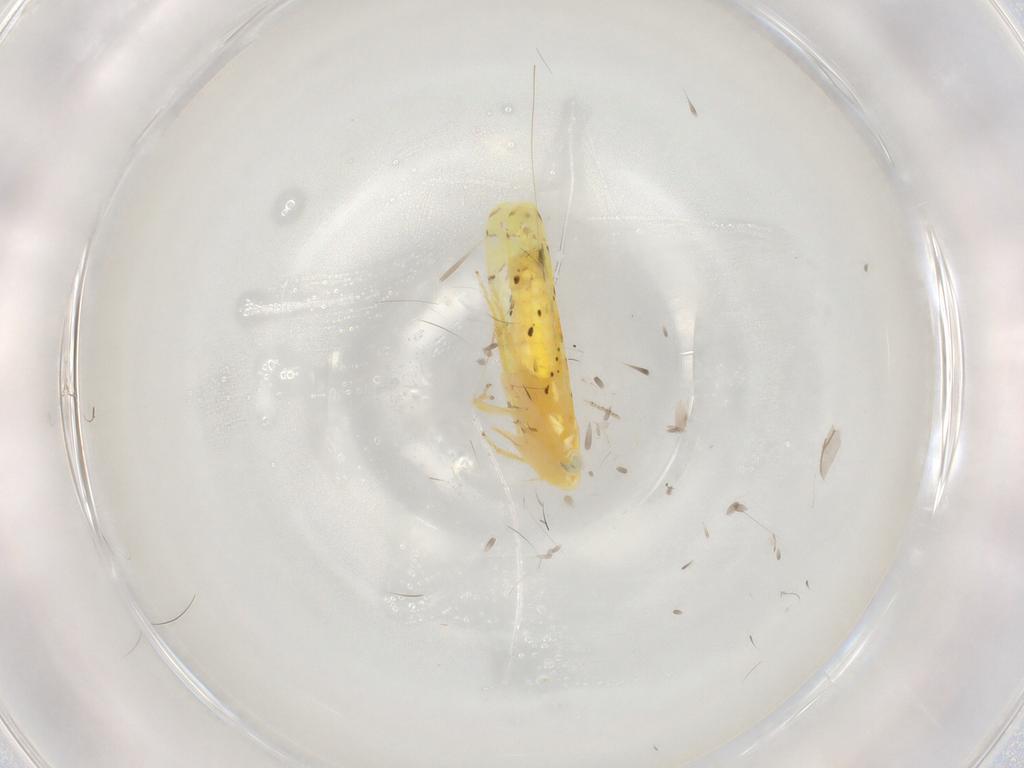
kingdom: Animalia
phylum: Arthropoda
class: Insecta
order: Hemiptera
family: Cicadellidae
